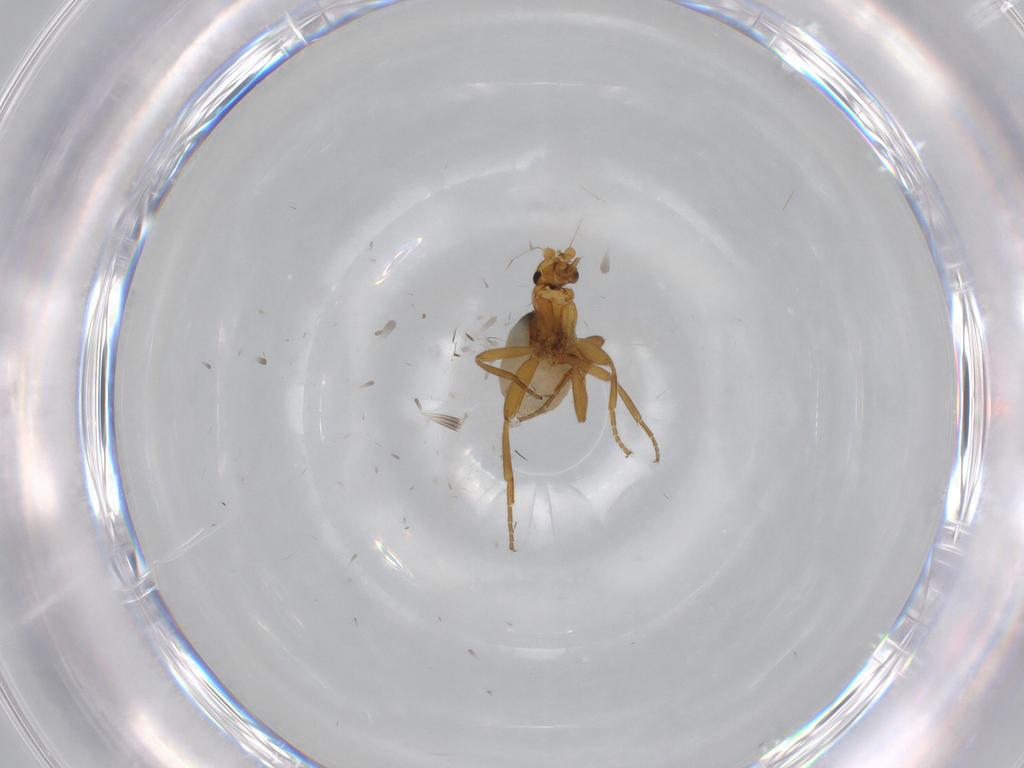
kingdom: Animalia
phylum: Arthropoda
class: Insecta
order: Diptera
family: Phoridae
